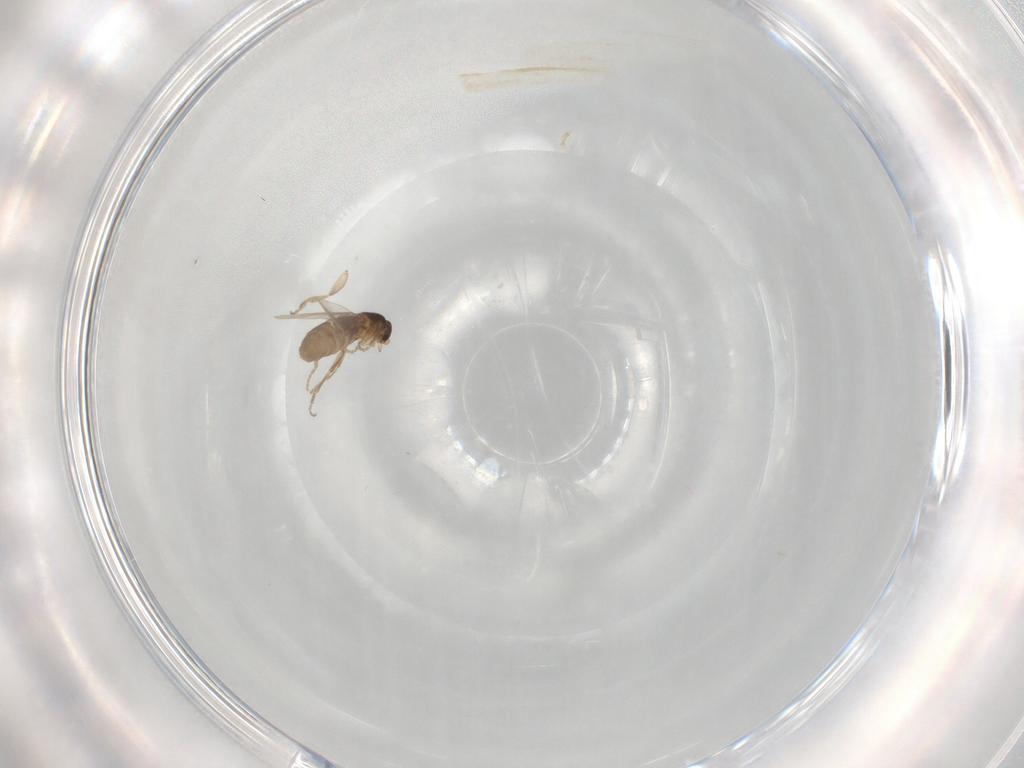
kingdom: Animalia
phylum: Arthropoda
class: Insecta
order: Diptera
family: Phoridae
